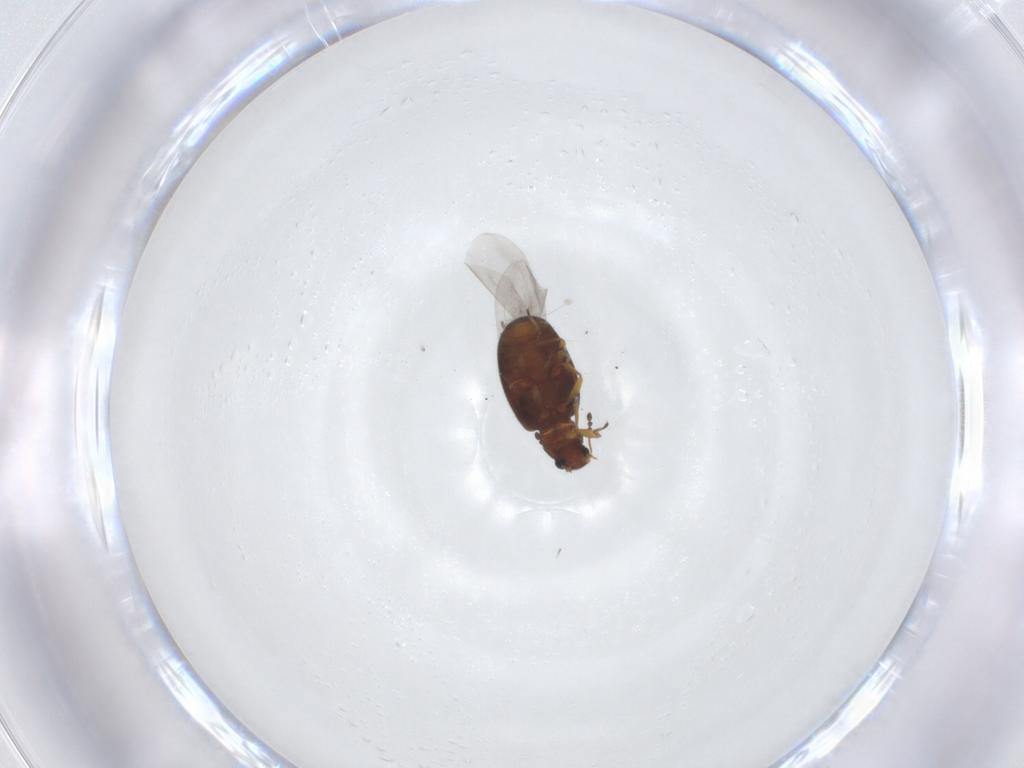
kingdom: Animalia
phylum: Arthropoda
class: Insecta
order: Coleoptera
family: Latridiidae
